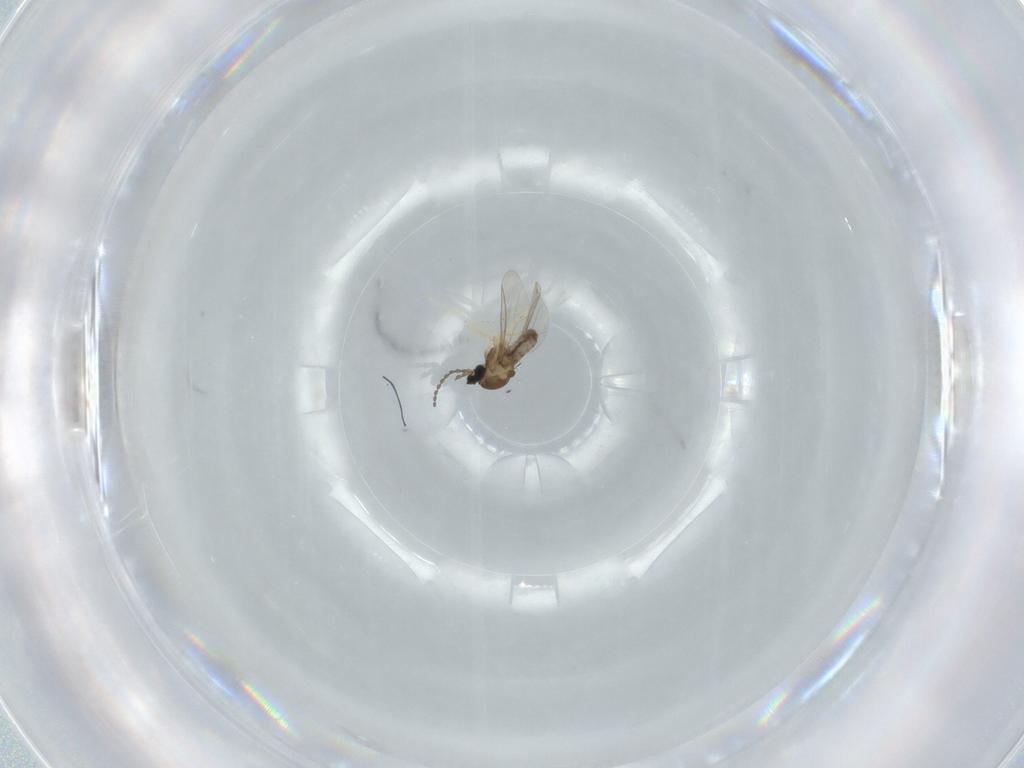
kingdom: Animalia
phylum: Arthropoda
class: Insecta
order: Diptera
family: Cecidomyiidae
